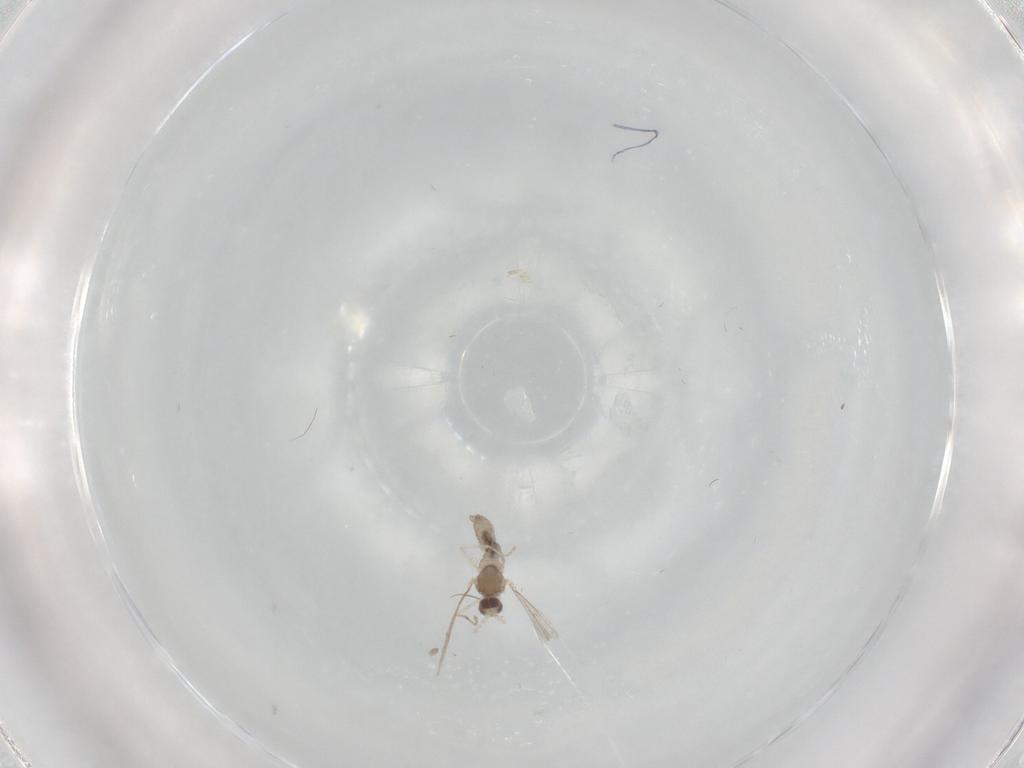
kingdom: Animalia
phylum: Arthropoda
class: Insecta
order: Diptera
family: Cecidomyiidae
